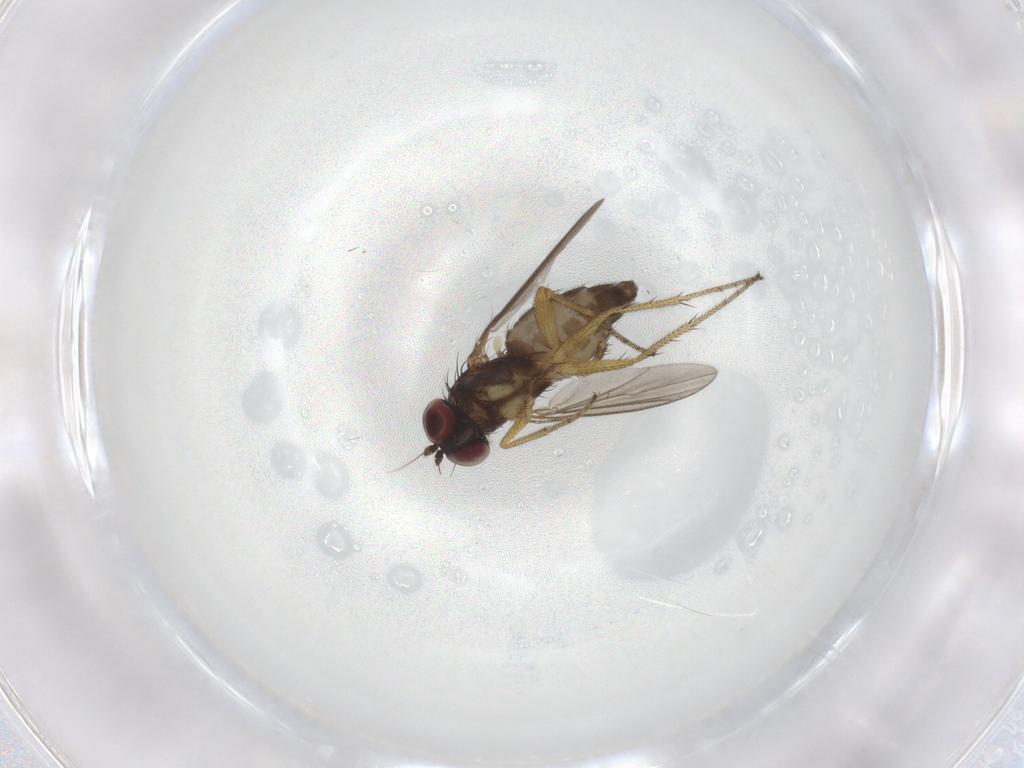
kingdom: Animalia
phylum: Arthropoda
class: Insecta
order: Diptera
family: Dolichopodidae
